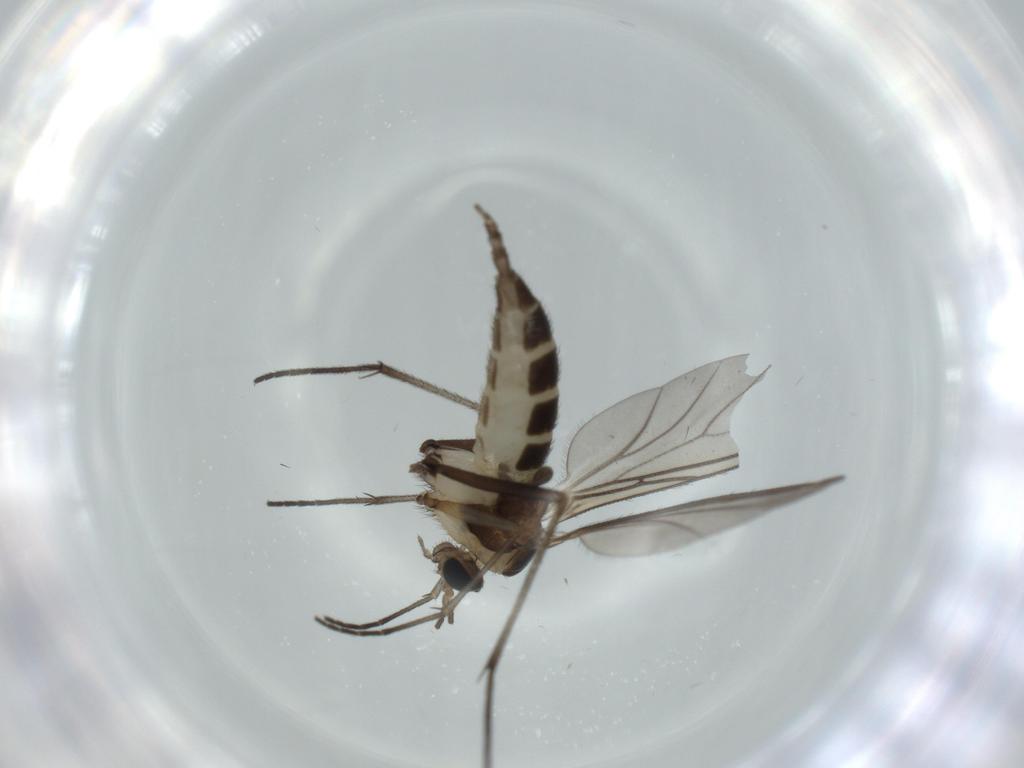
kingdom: Animalia
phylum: Arthropoda
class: Insecta
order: Diptera
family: Sciaridae
